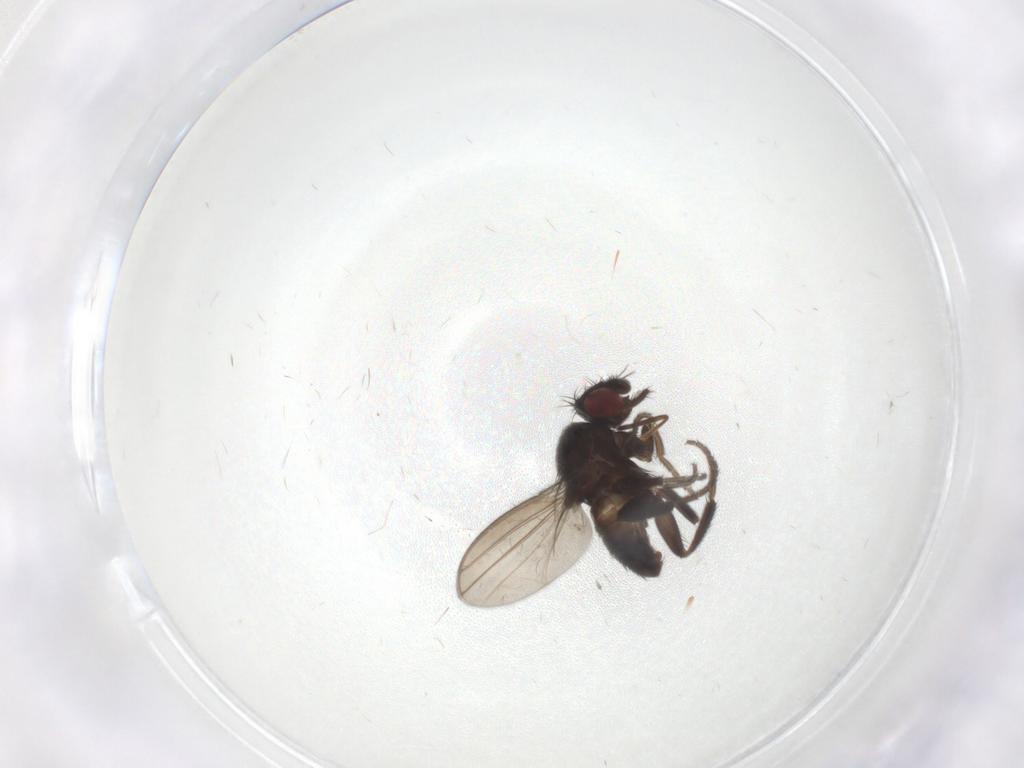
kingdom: Animalia
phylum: Arthropoda
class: Insecta
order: Diptera
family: Milichiidae
